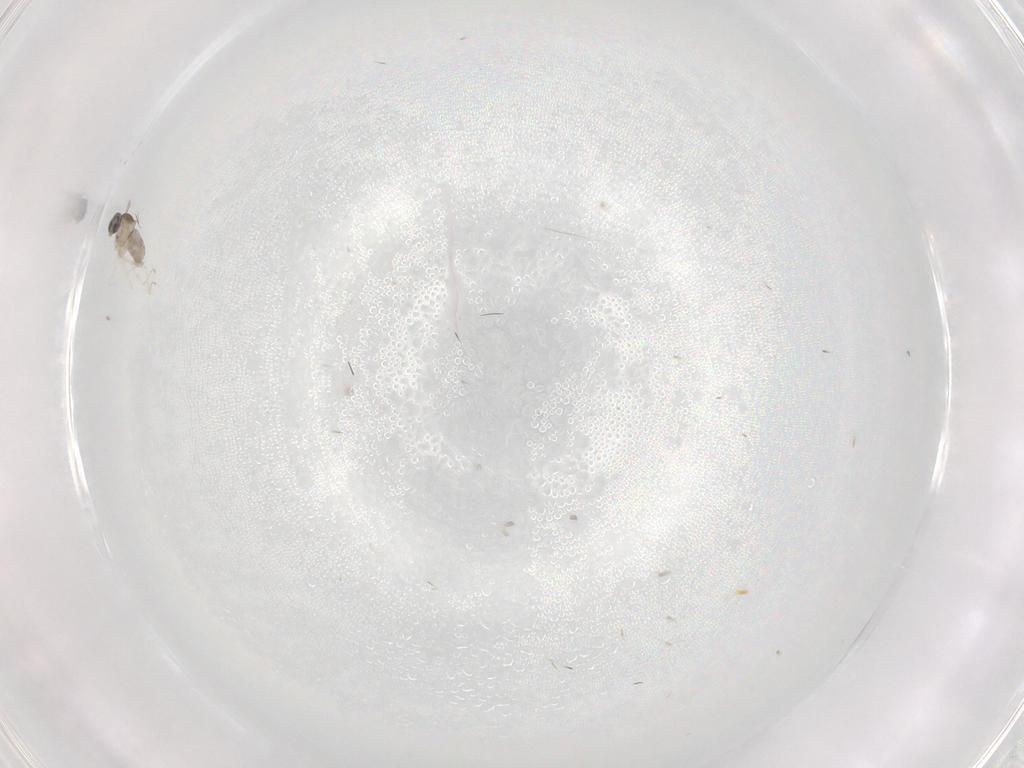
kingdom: Animalia
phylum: Arthropoda
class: Insecta
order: Diptera
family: Cecidomyiidae
